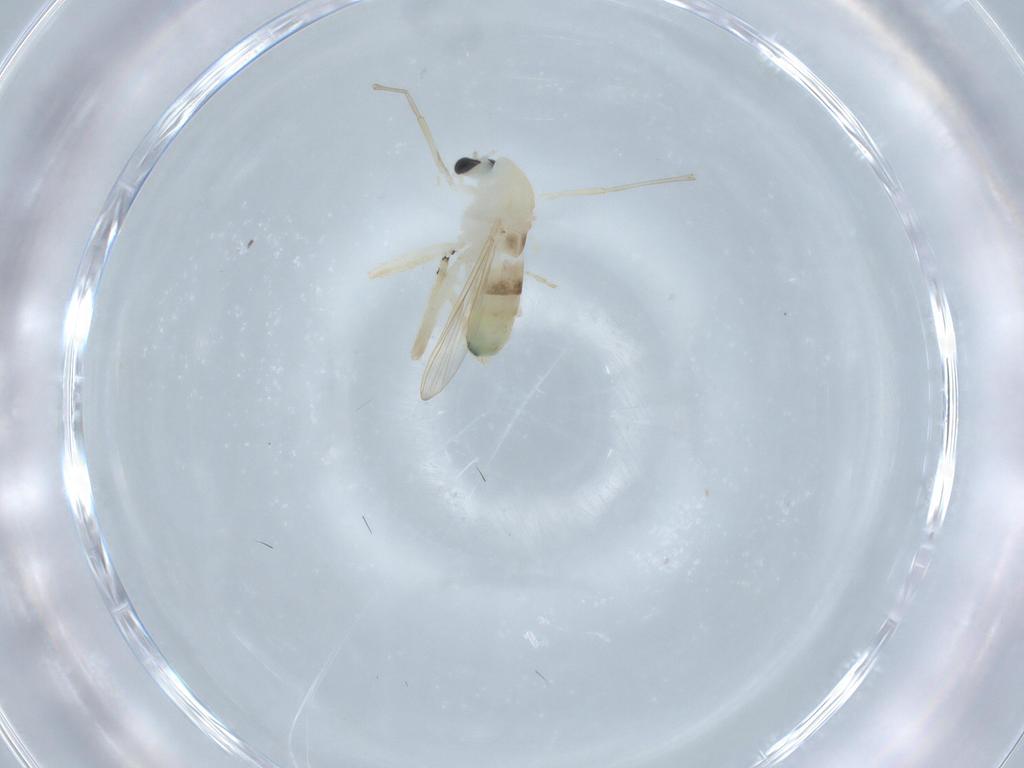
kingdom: Animalia
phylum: Arthropoda
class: Insecta
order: Diptera
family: Chironomidae
